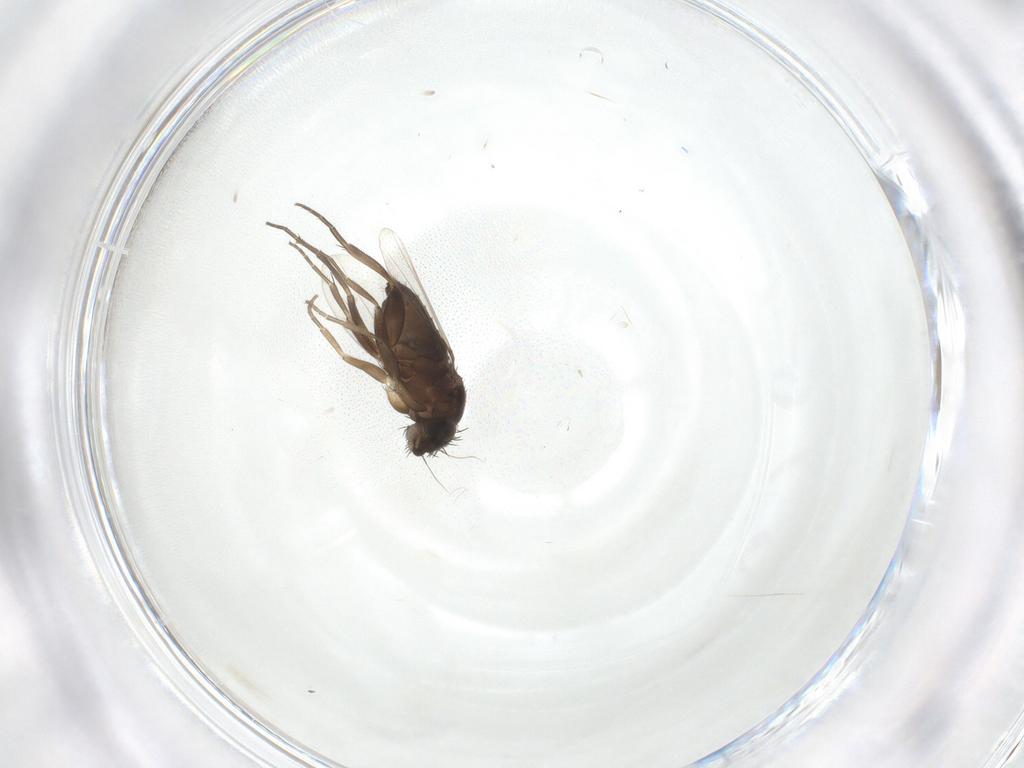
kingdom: Animalia
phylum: Arthropoda
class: Insecta
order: Diptera
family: Phoridae
